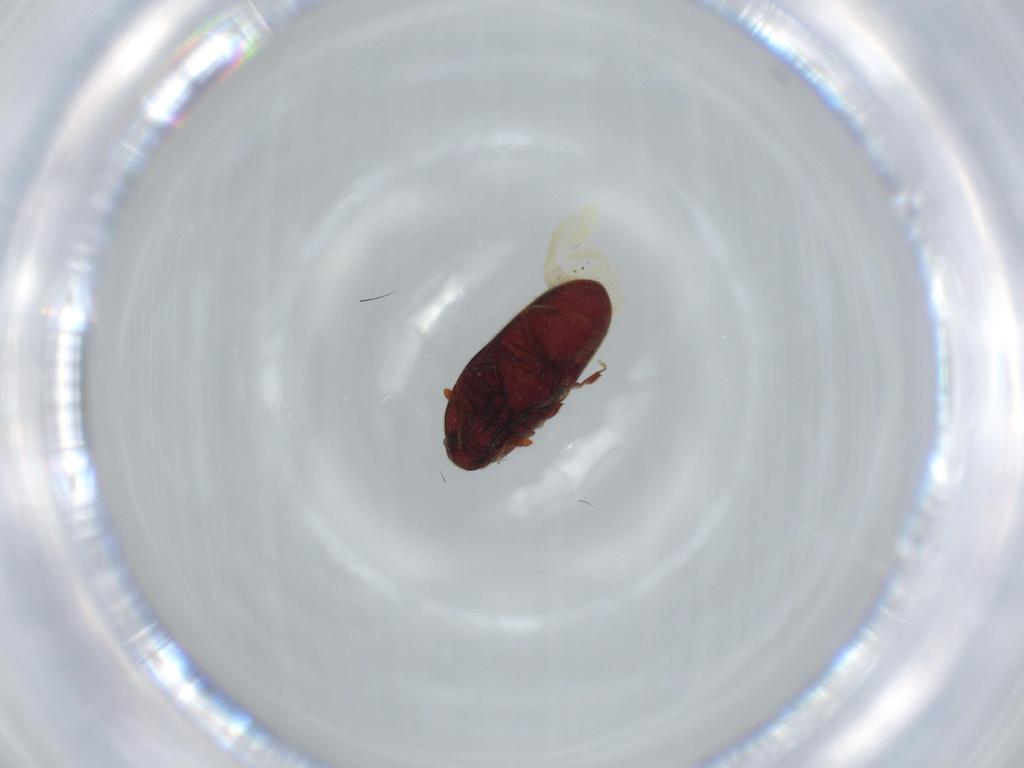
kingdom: Animalia
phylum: Arthropoda
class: Insecta
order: Coleoptera
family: Throscidae
